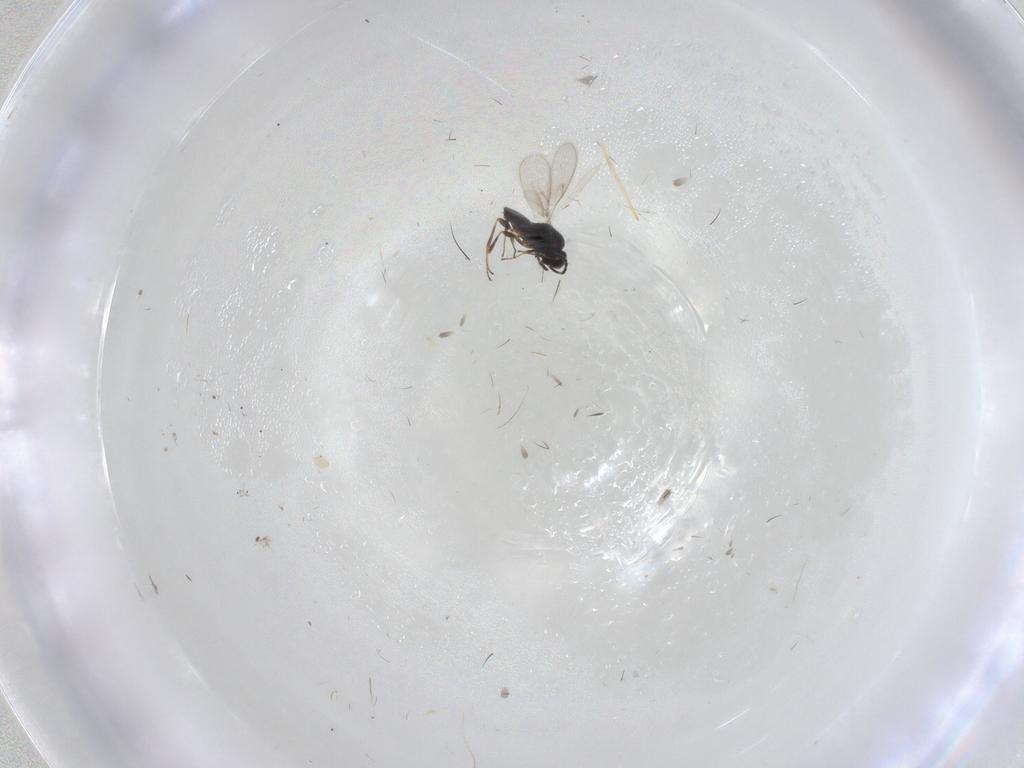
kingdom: Animalia
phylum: Arthropoda
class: Insecta
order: Hymenoptera
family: Scelionidae
